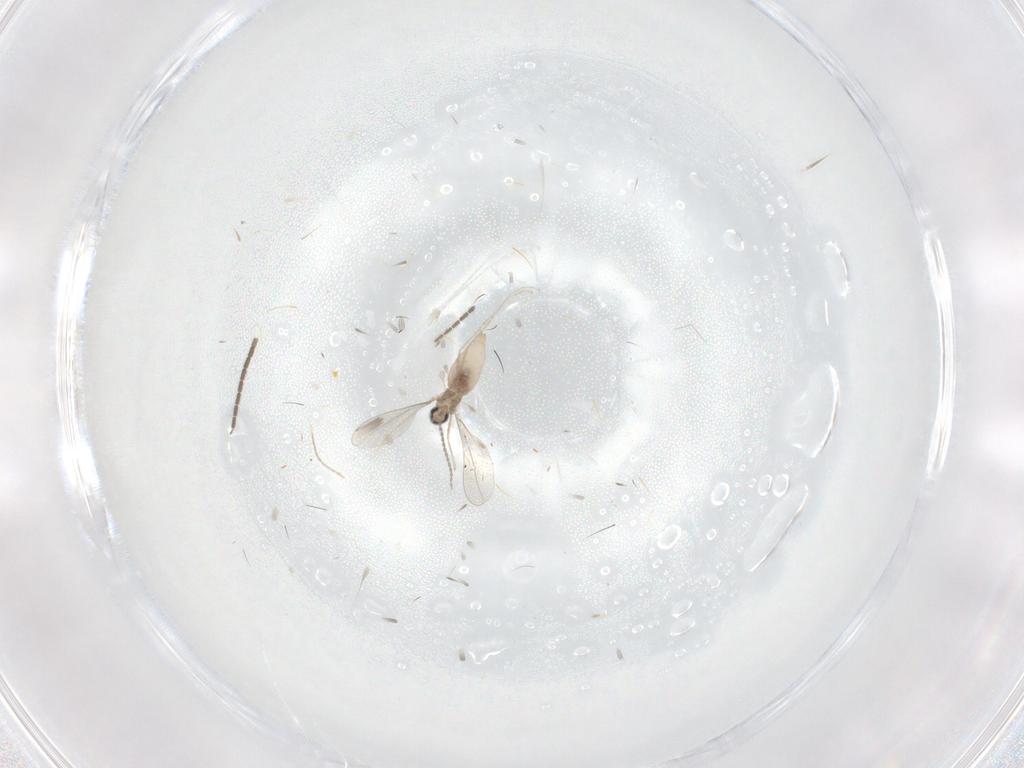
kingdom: Animalia
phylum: Arthropoda
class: Insecta
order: Diptera
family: Cecidomyiidae
